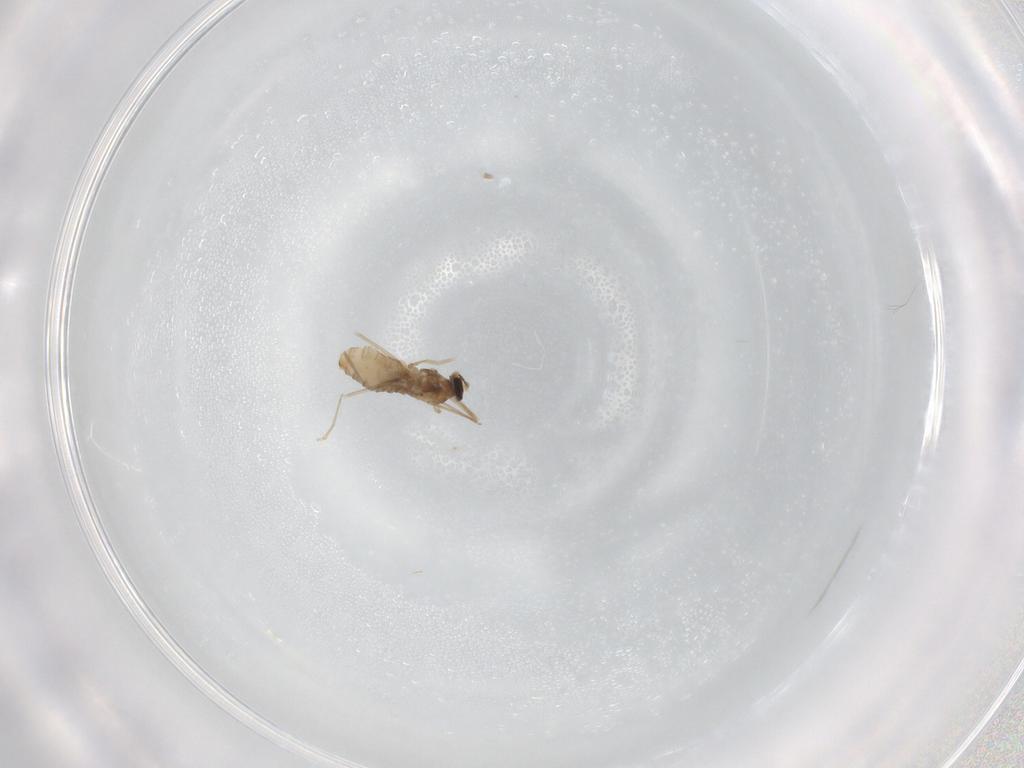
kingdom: Animalia
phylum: Arthropoda
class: Insecta
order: Diptera
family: Cecidomyiidae
